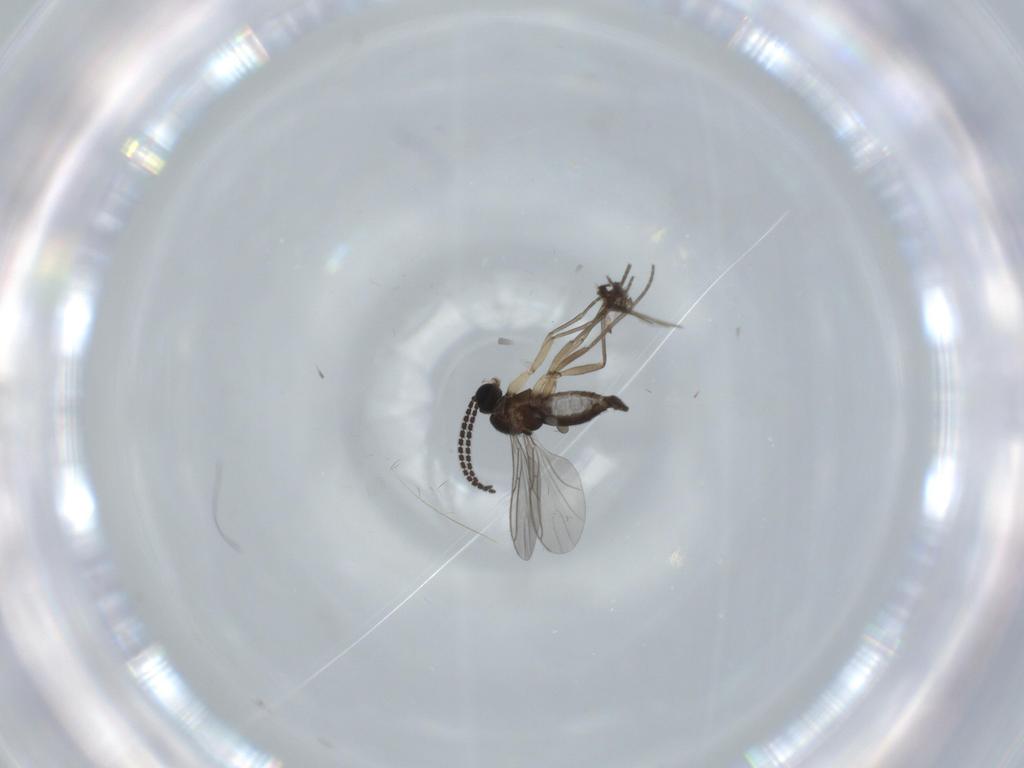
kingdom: Animalia
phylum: Arthropoda
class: Insecta
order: Diptera
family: Cecidomyiidae
